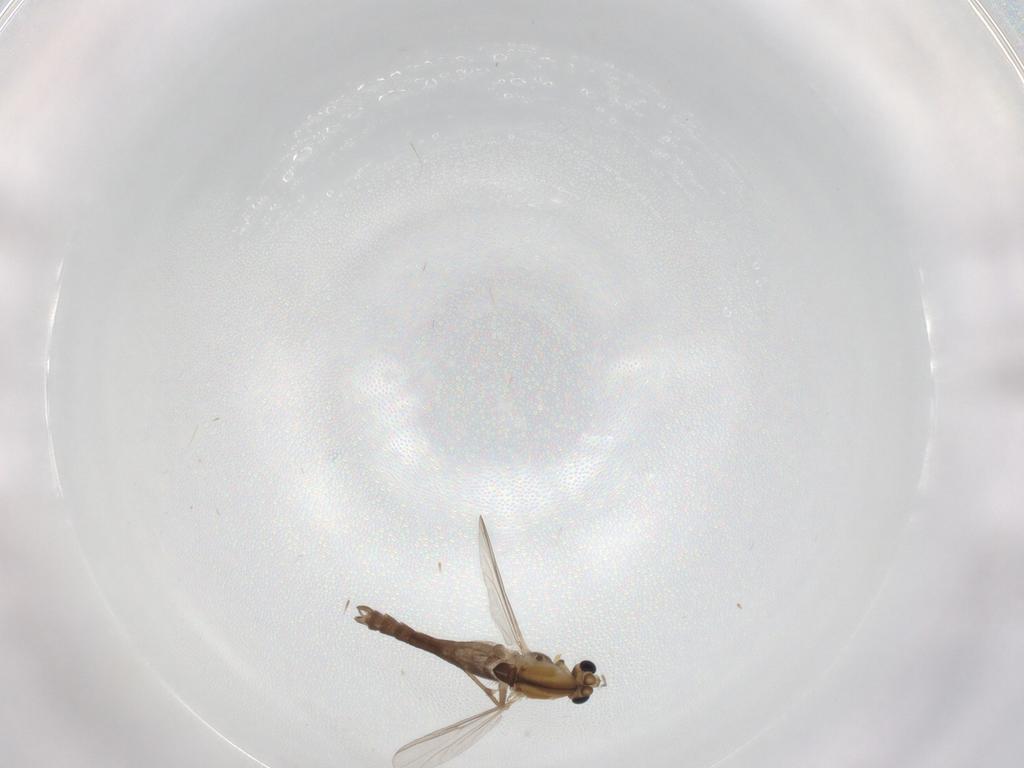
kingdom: Animalia
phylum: Arthropoda
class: Insecta
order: Diptera
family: Chironomidae
